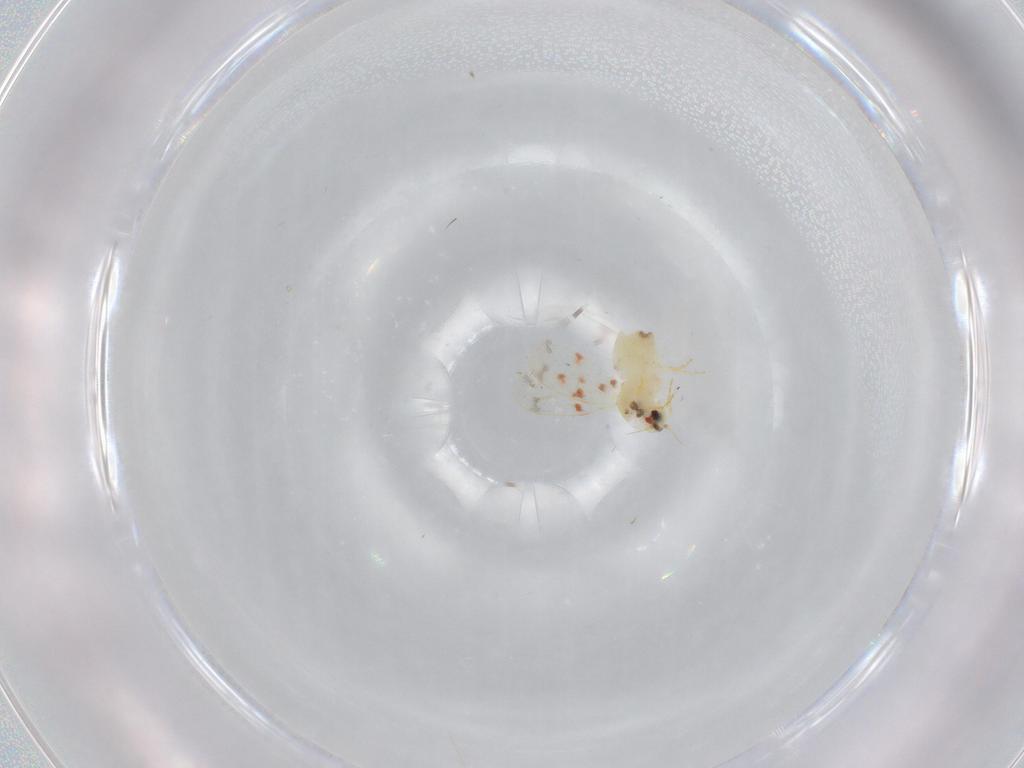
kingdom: Animalia
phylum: Arthropoda
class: Insecta
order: Hemiptera
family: Aleyrodidae
